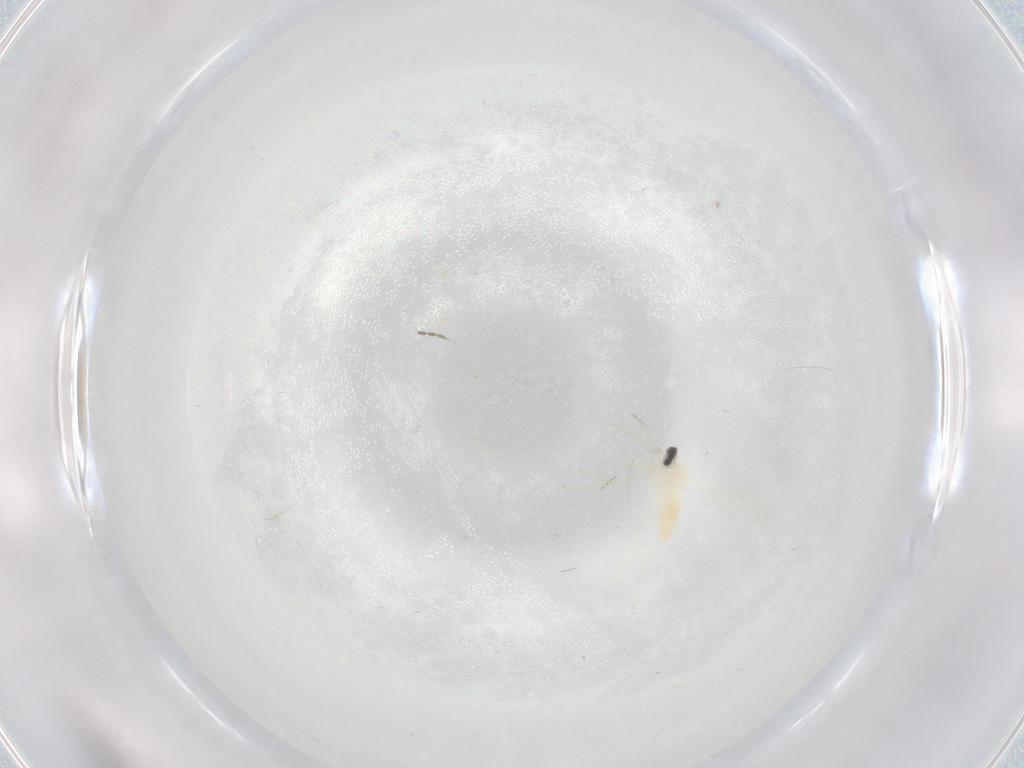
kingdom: Animalia
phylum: Arthropoda
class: Insecta
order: Diptera
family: Cecidomyiidae
